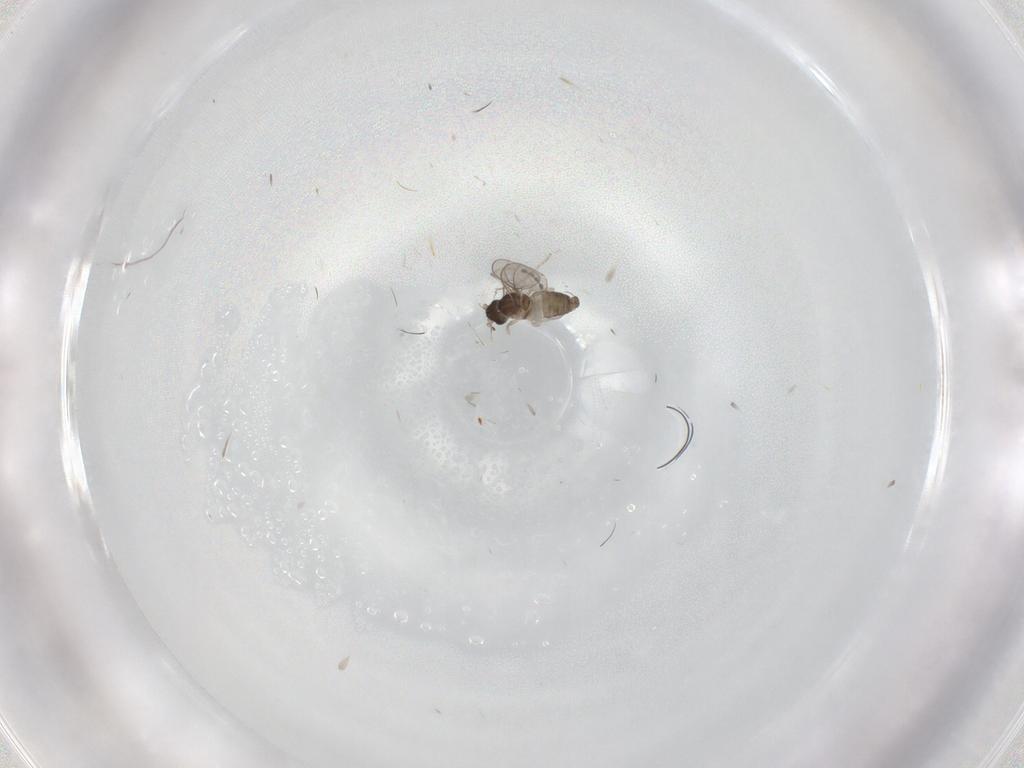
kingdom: Animalia
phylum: Arthropoda
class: Insecta
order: Diptera
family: Cecidomyiidae
